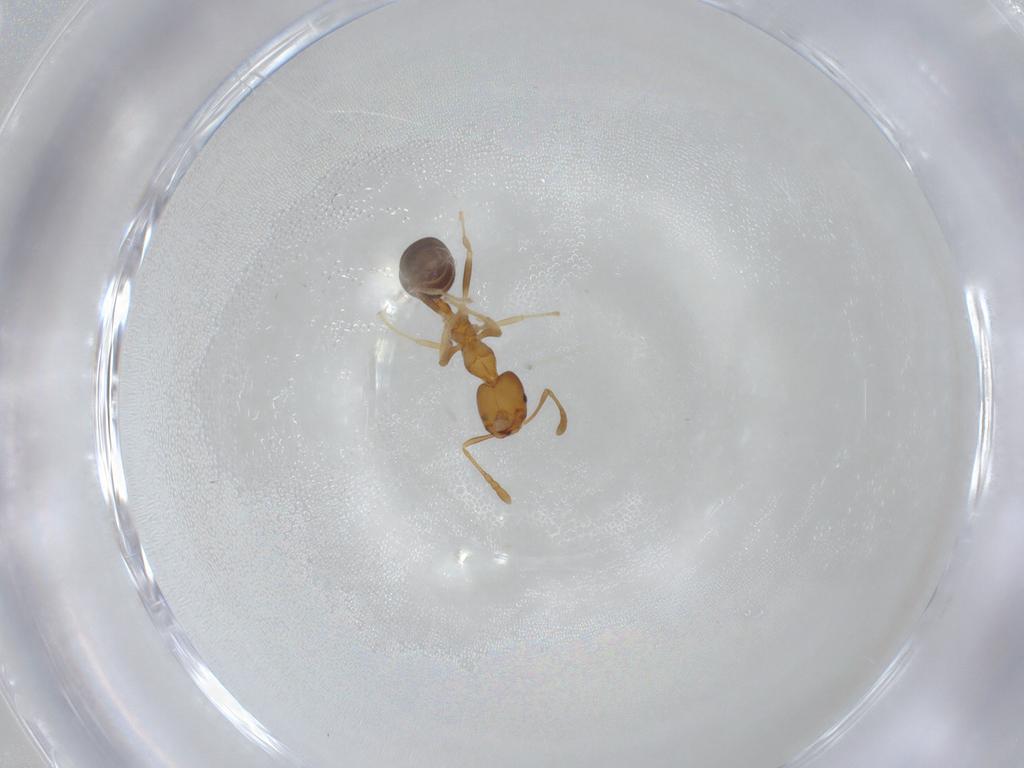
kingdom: Animalia
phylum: Arthropoda
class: Insecta
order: Hymenoptera
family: Formicidae
